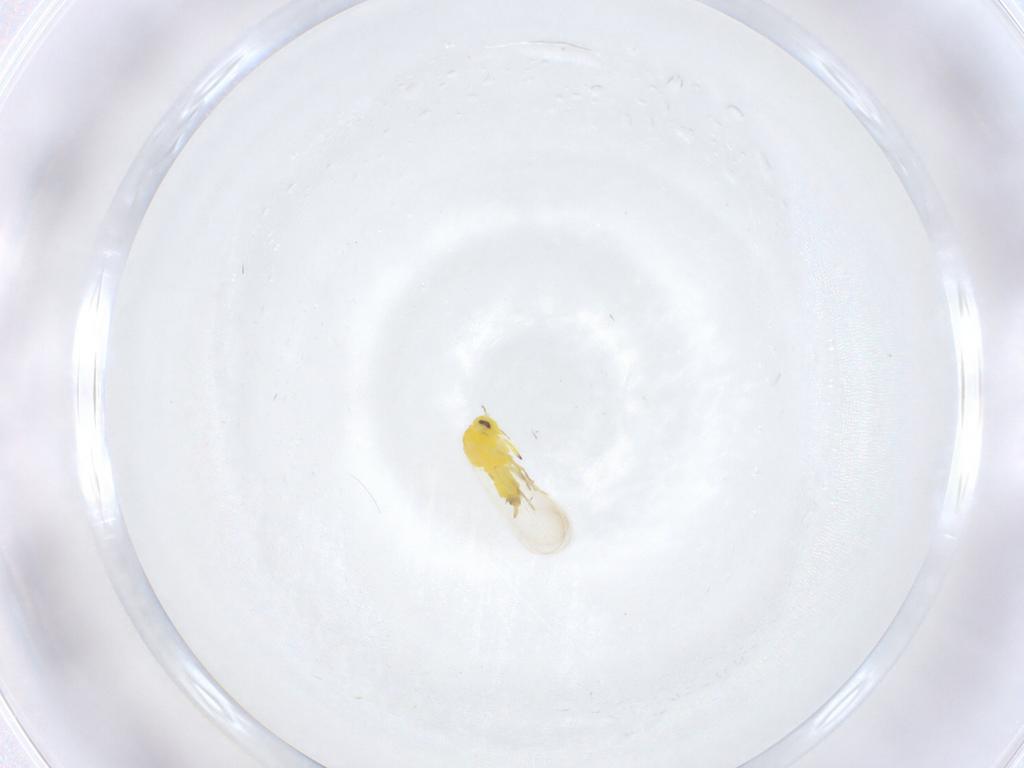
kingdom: Animalia
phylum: Arthropoda
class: Insecta
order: Hemiptera
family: Aleyrodidae
